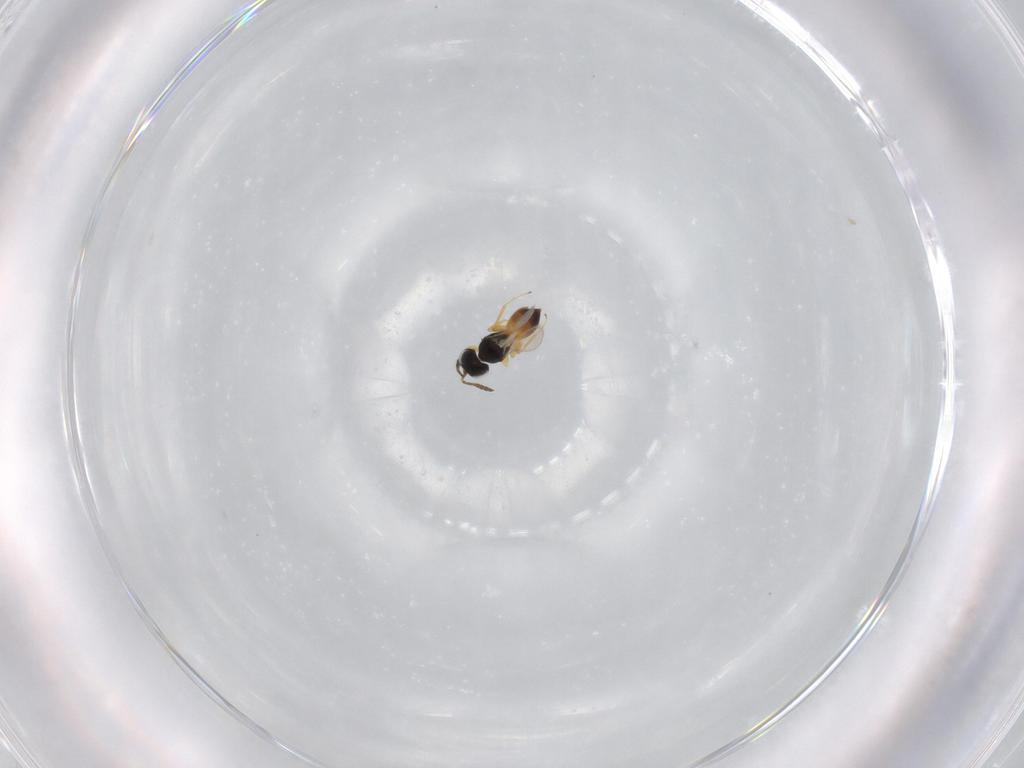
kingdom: Animalia
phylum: Arthropoda
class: Insecta
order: Hymenoptera
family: Scelionidae
